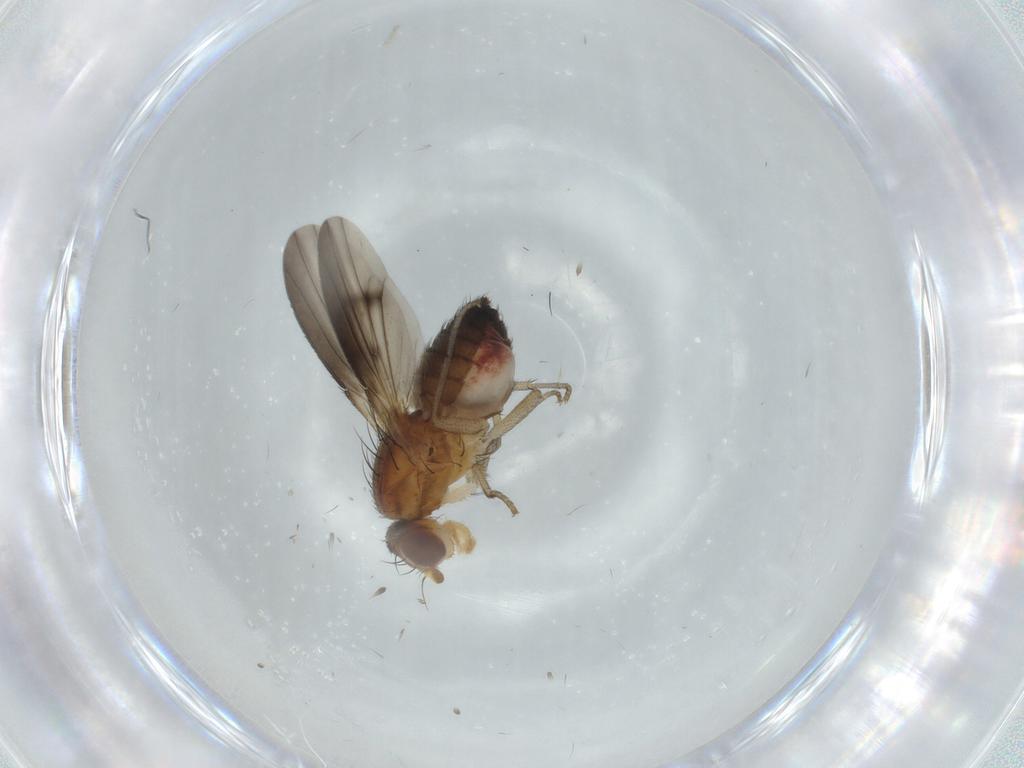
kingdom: Animalia
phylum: Arthropoda
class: Insecta
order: Diptera
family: Heleomyzidae
